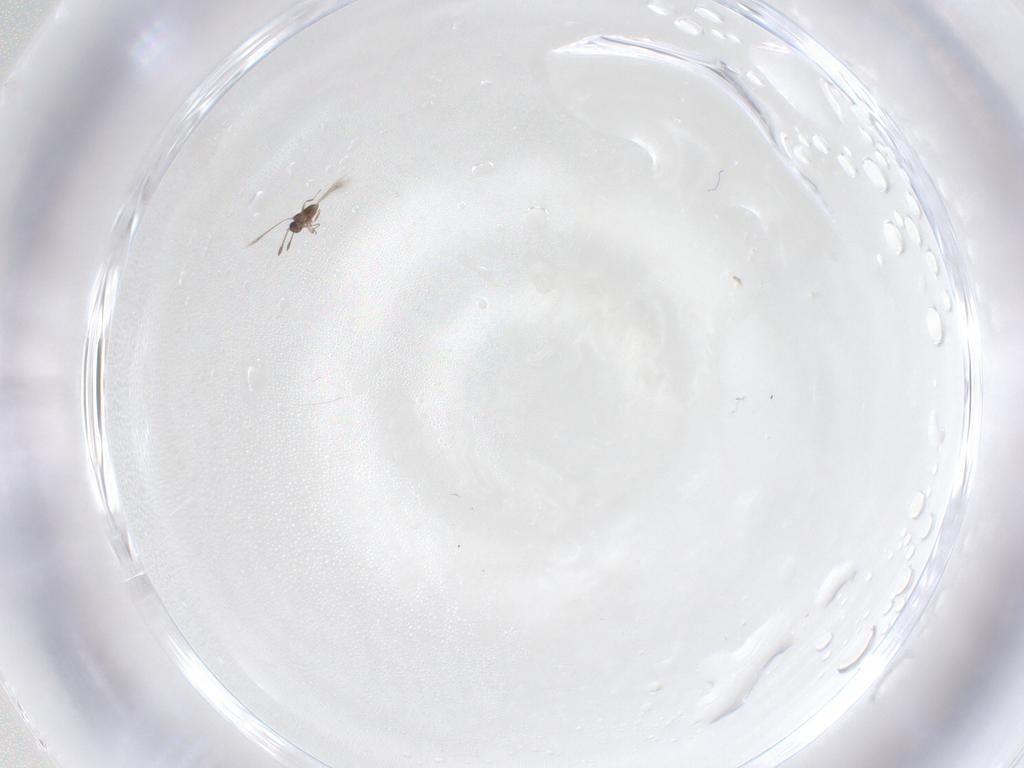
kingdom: Animalia
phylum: Arthropoda
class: Insecta
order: Hymenoptera
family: Mymaridae
